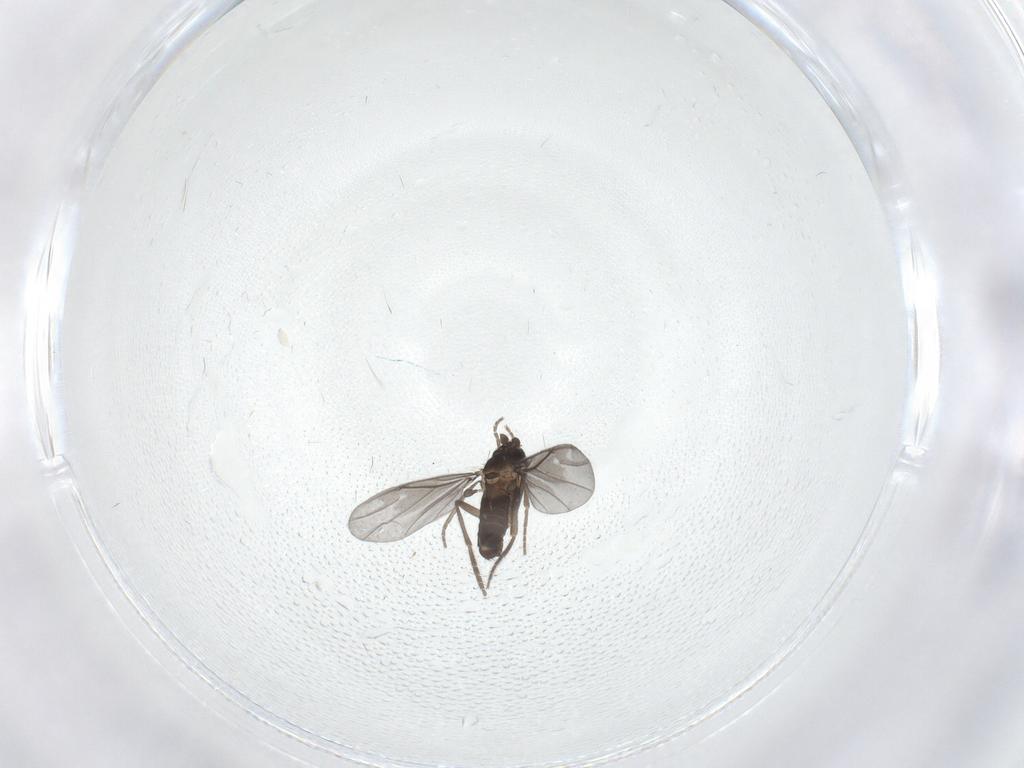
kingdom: Animalia
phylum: Arthropoda
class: Insecta
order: Diptera
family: Phoridae
